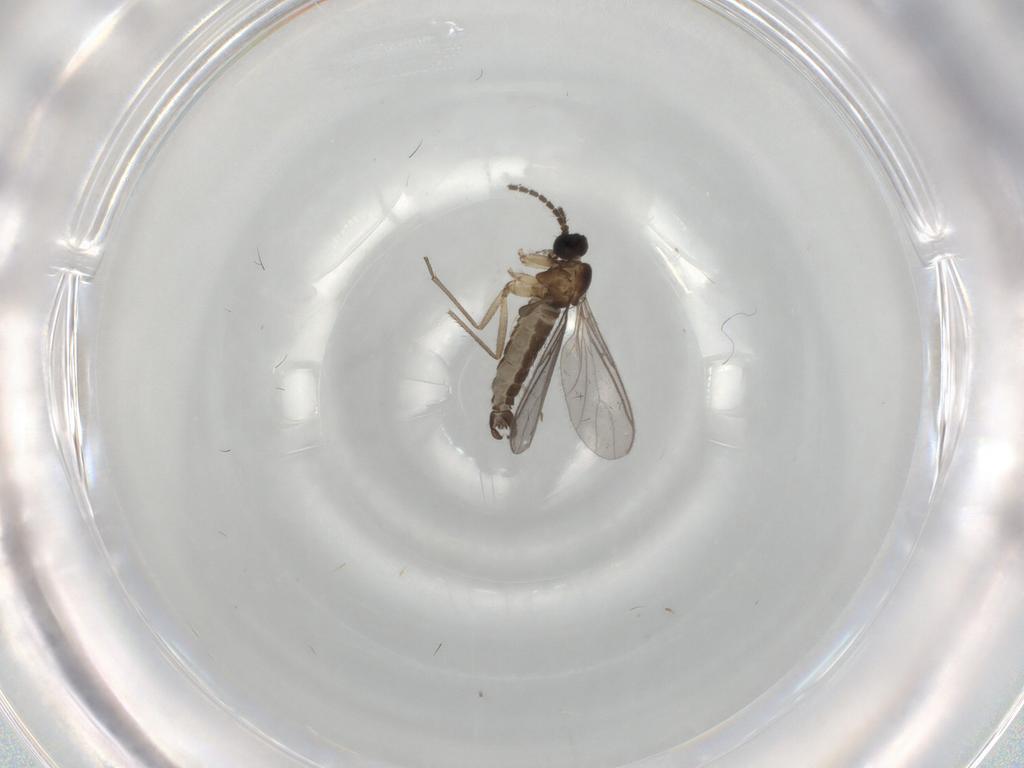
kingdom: Animalia
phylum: Arthropoda
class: Insecta
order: Diptera
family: Sciaridae
